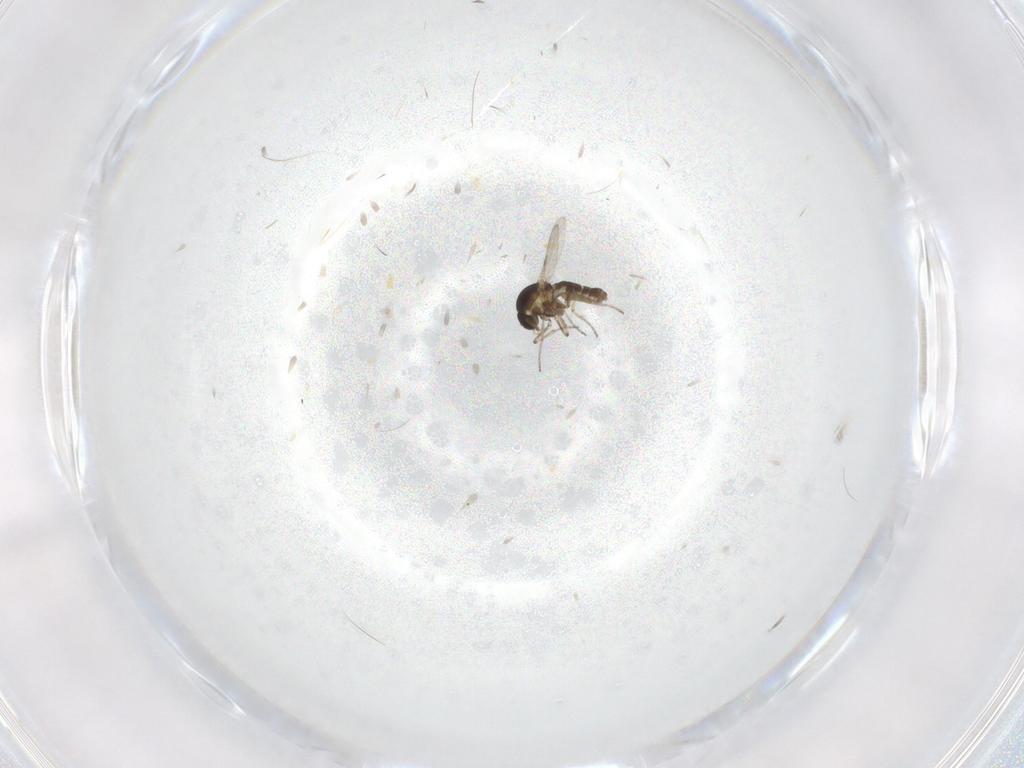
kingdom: Animalia
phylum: Arthropoda
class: Insecta
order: Diptera
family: Ceratopogonidae
